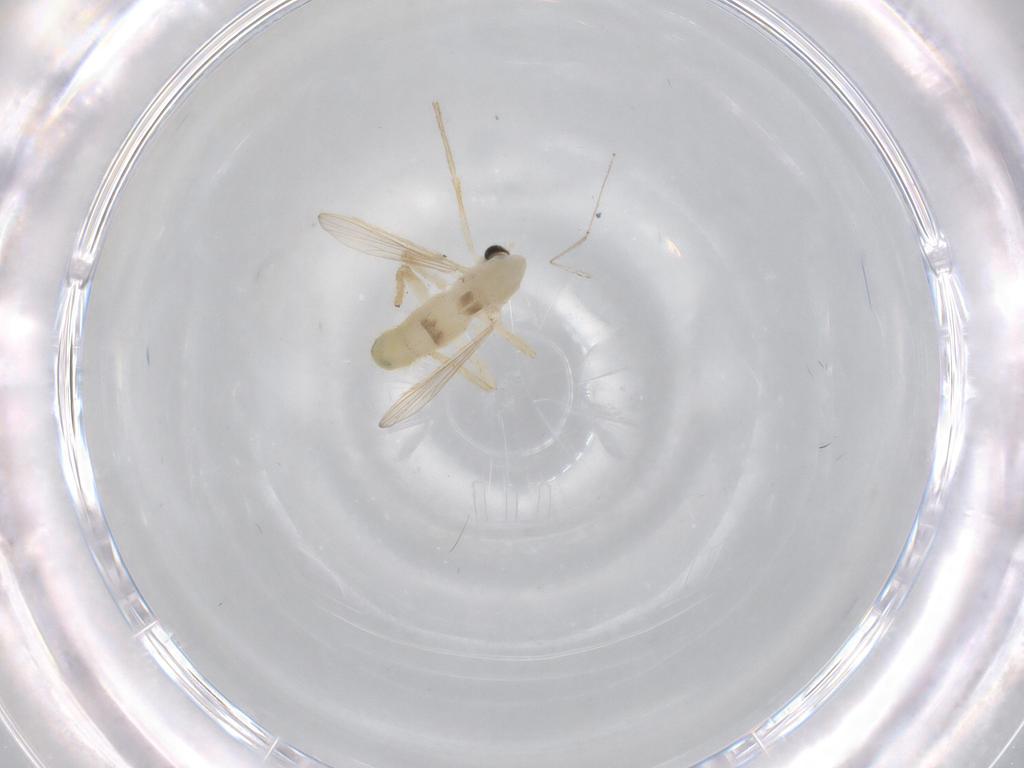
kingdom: Animalia
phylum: Arthropoda
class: Insecta
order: Diptera
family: Chironomidae
